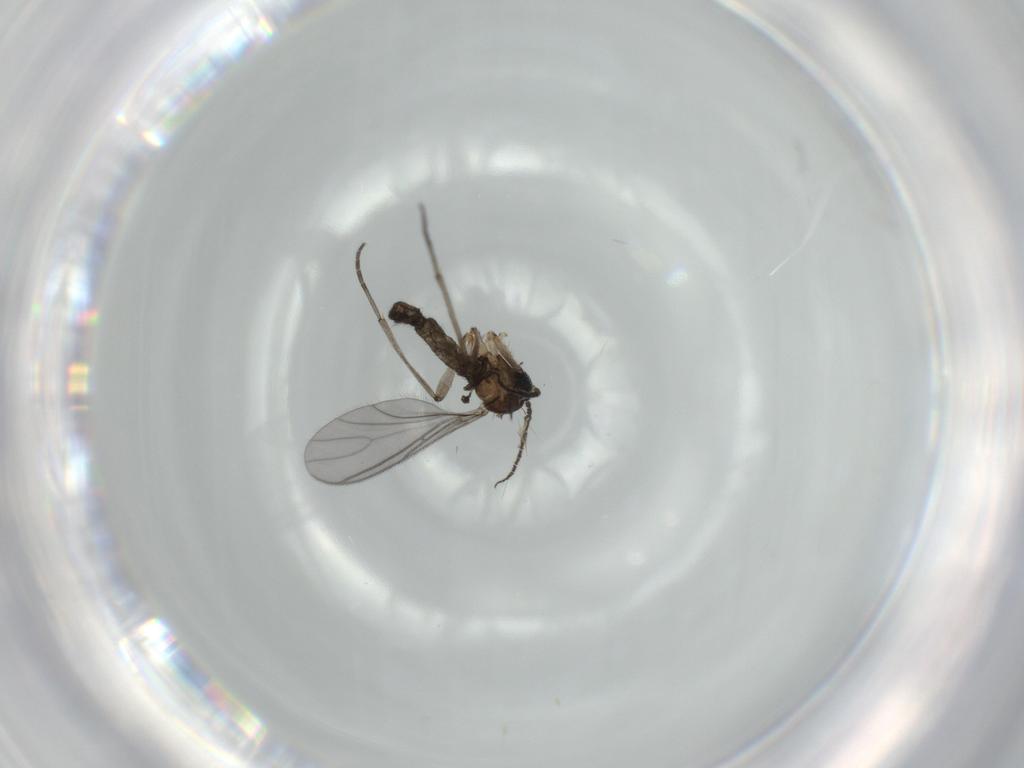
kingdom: Animalia
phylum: Arthropoda
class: Insecta
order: Diptera
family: Sciaridae
